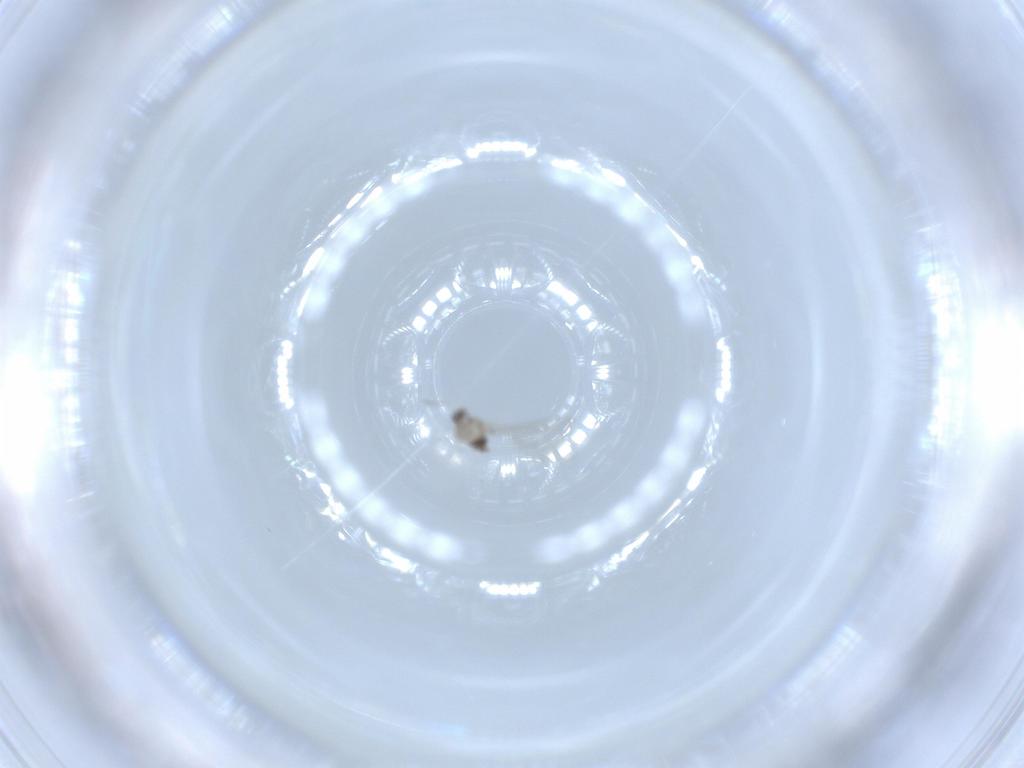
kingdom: Animalia
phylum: Arthropoda
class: Insecta
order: Diptera
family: Cecidomyiidae
